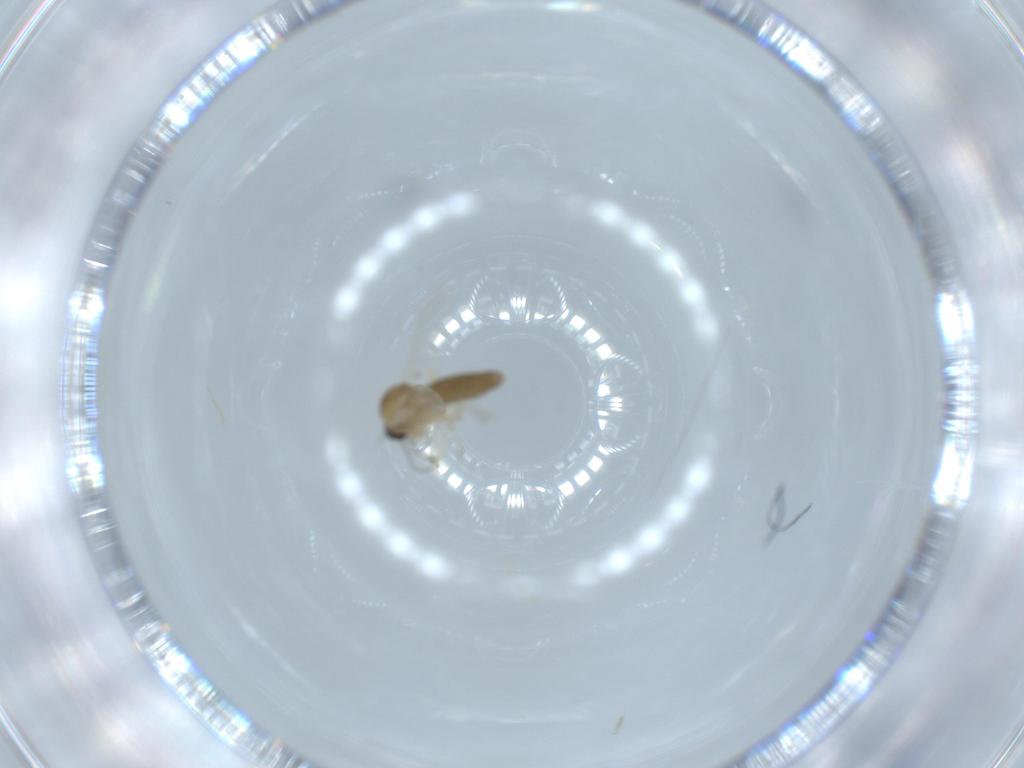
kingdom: Animalia
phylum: Arthropoda
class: Insecta
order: Diptera
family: Ceratopogonidae
